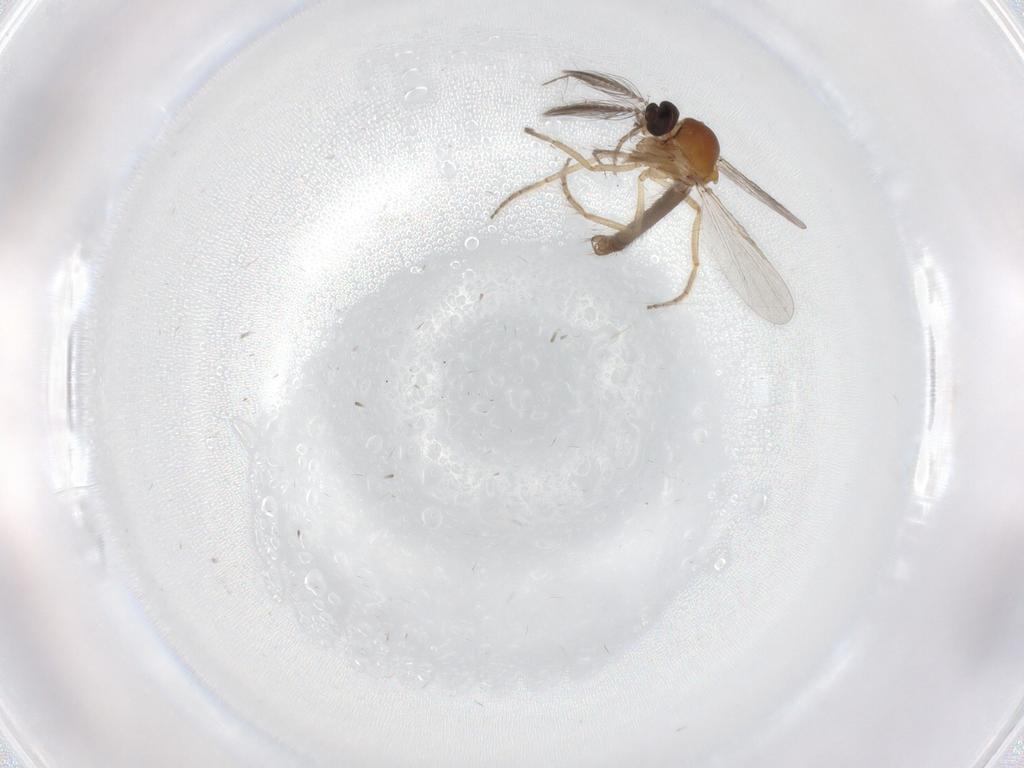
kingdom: Animalia
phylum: Arthropoda
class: Insecta
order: Diptera
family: Ceratopogonidae
